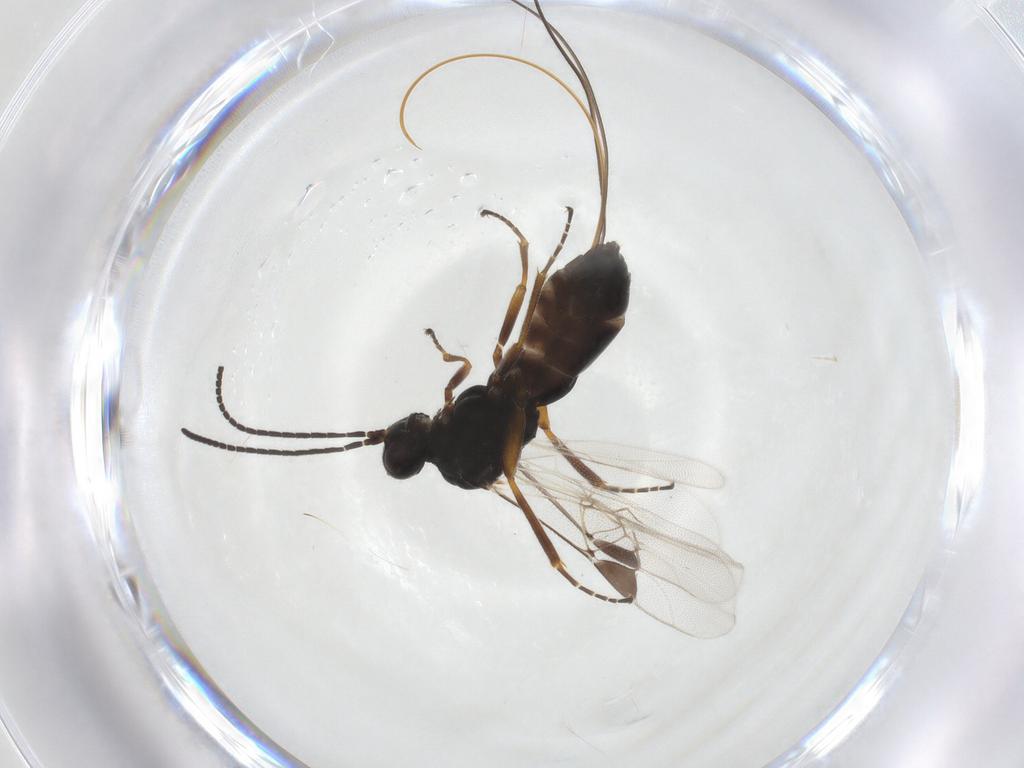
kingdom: Animalia
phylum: Arthropoda
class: Insecta
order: Hymenoptera
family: Braconidae
